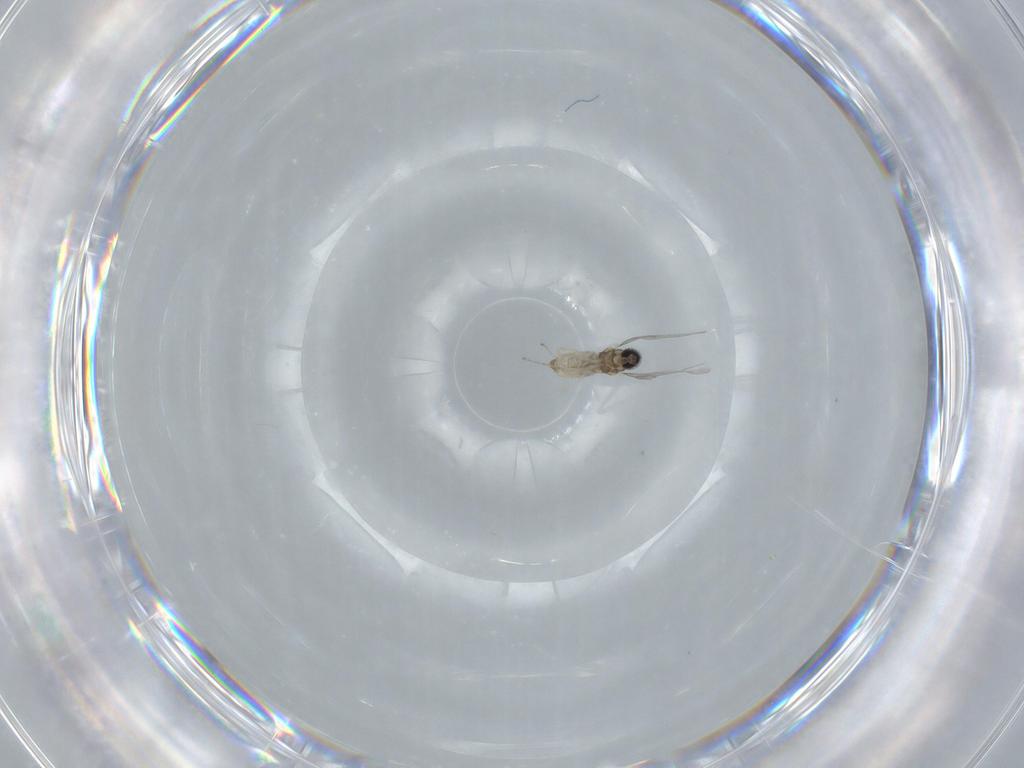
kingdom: Animalia
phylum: Arthropoda
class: Insecta
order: Diptera
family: Cecidomyiidae
